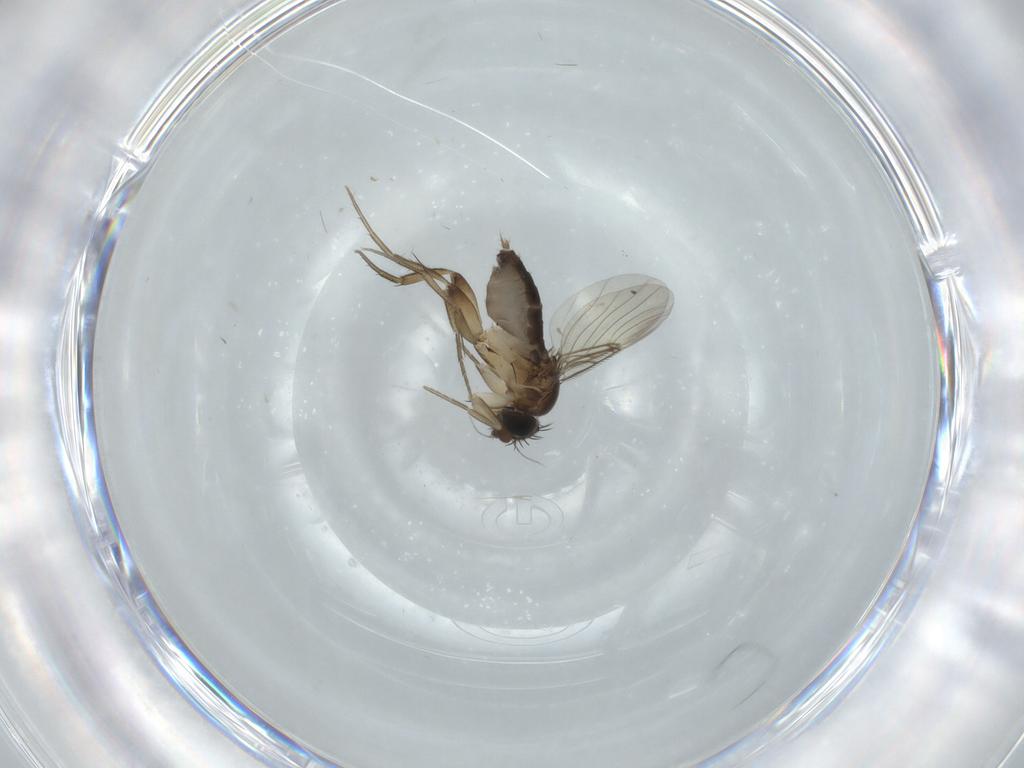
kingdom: Animalia
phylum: Arthropoda
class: Insecta
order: Diptera
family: Phoridae
